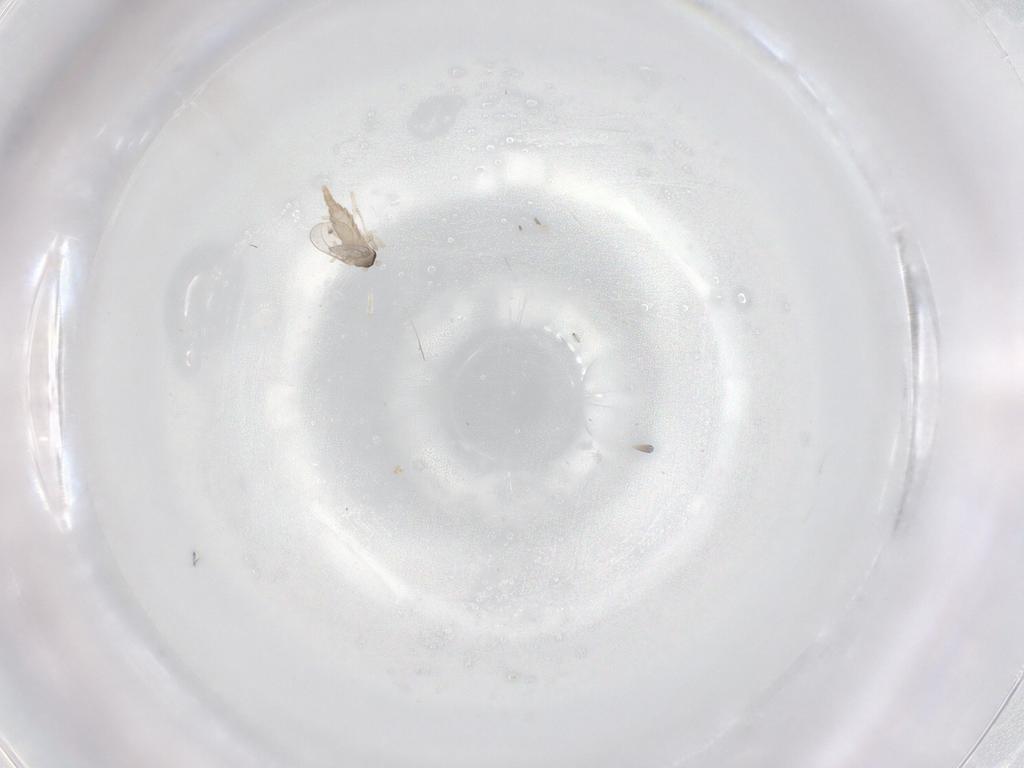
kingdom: Animalia
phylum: Arthropoda
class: Insecta
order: Diptera
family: Cecidomyiidae
